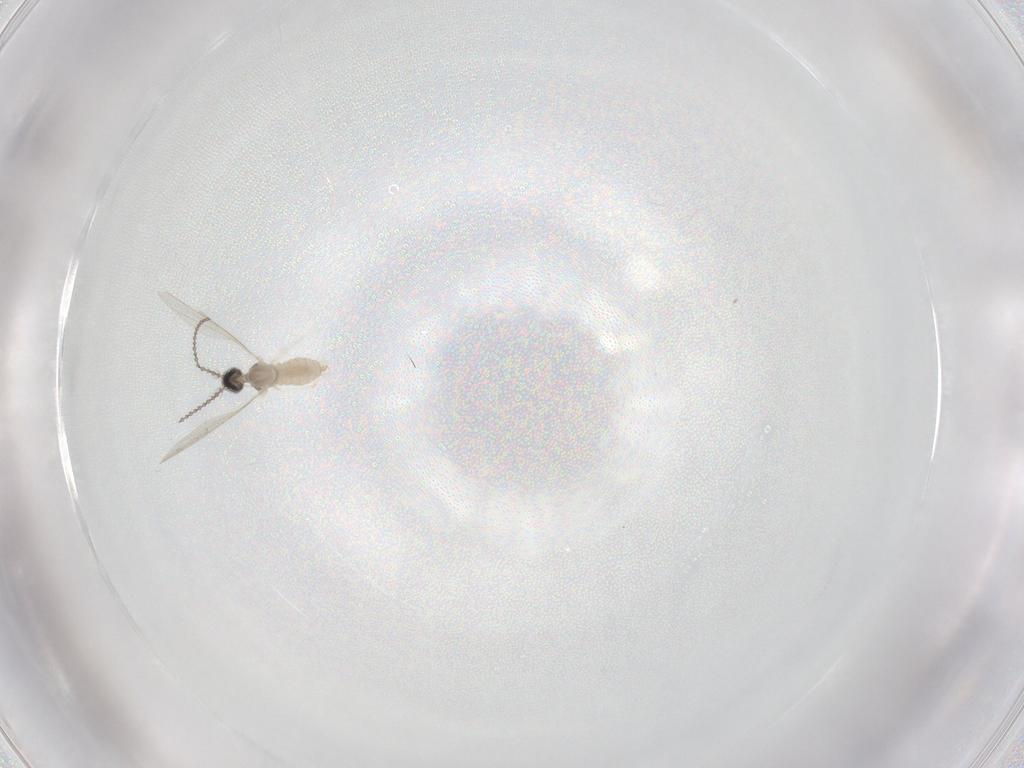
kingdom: Animalia
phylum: Arthropoda
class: Insecta
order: Diptera
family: Cecidomyiidae
